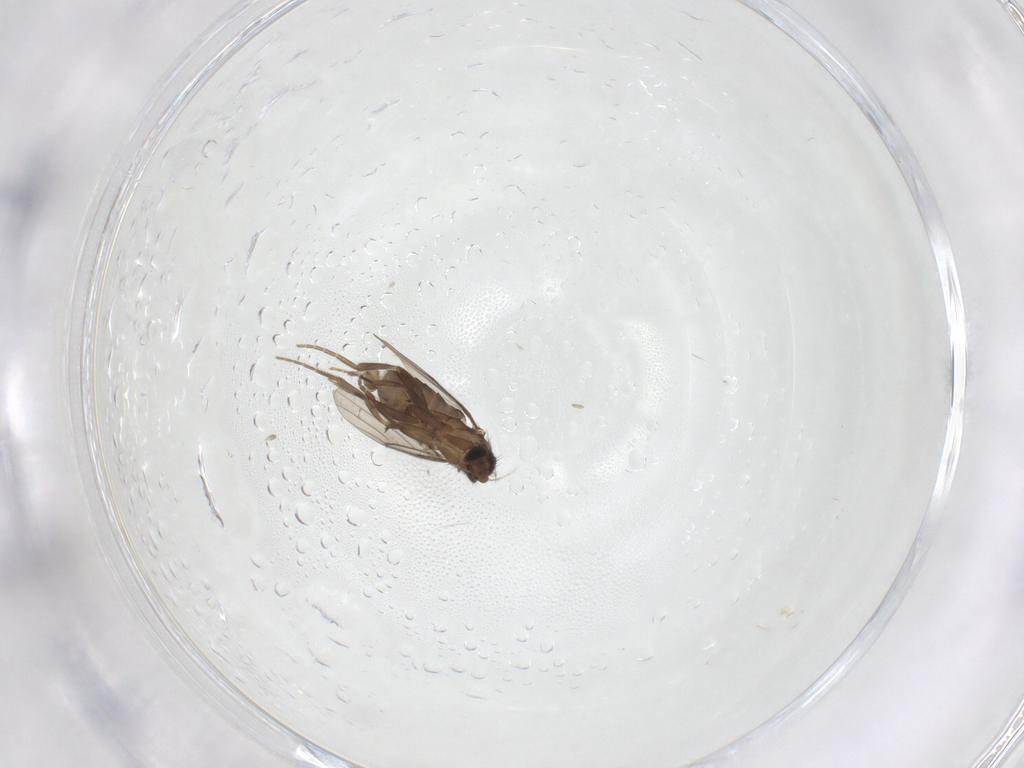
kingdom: Animalia
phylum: Arthropoda
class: Insecta
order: Diptera
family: Phoridae
